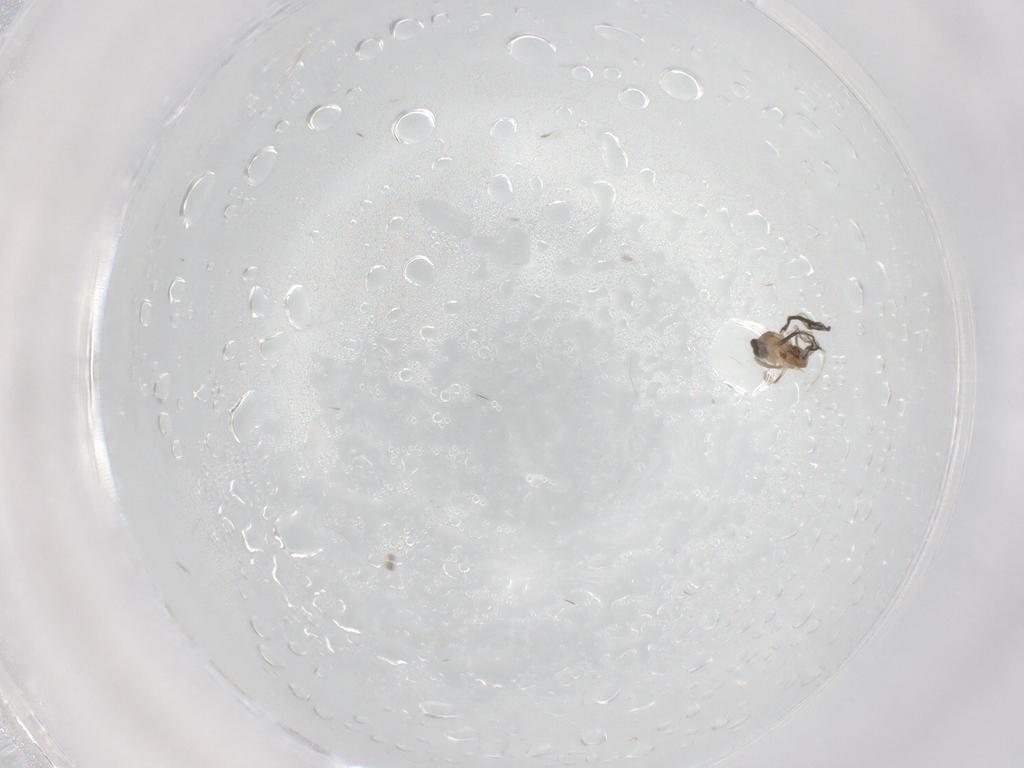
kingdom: Animalia
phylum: Arthropoda
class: Insecta
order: Diptera
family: Cecidomyiidae
